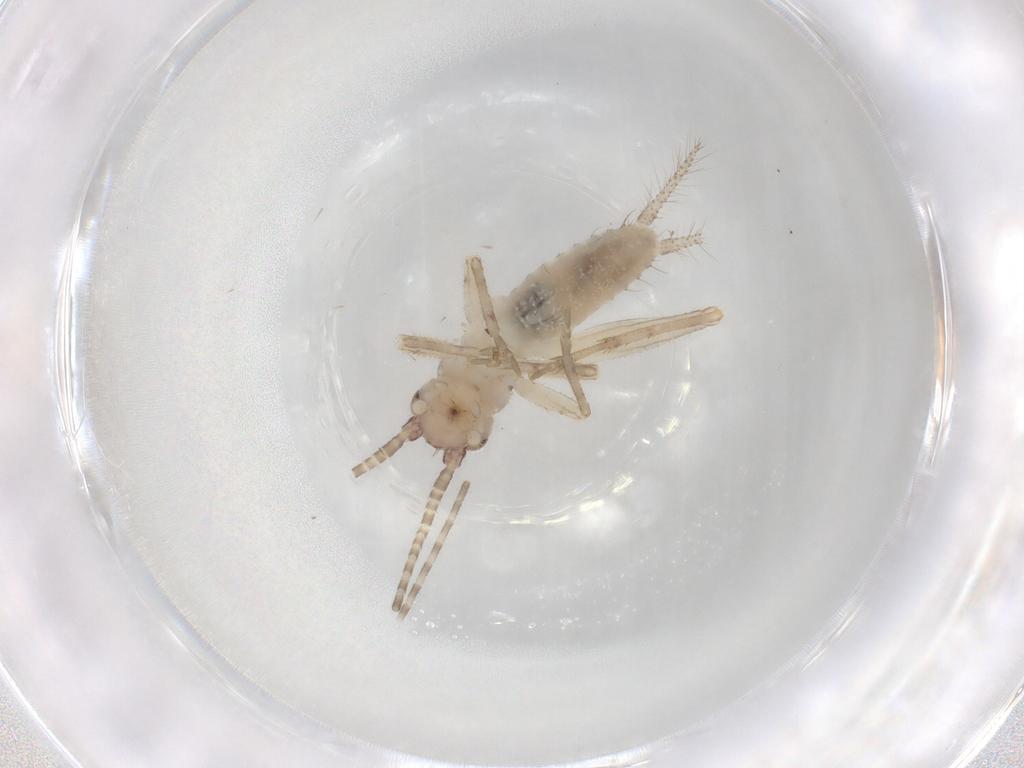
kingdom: Animalia
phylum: Arthropoda
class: Insecta
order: Orthoptera
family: Gryllidae
